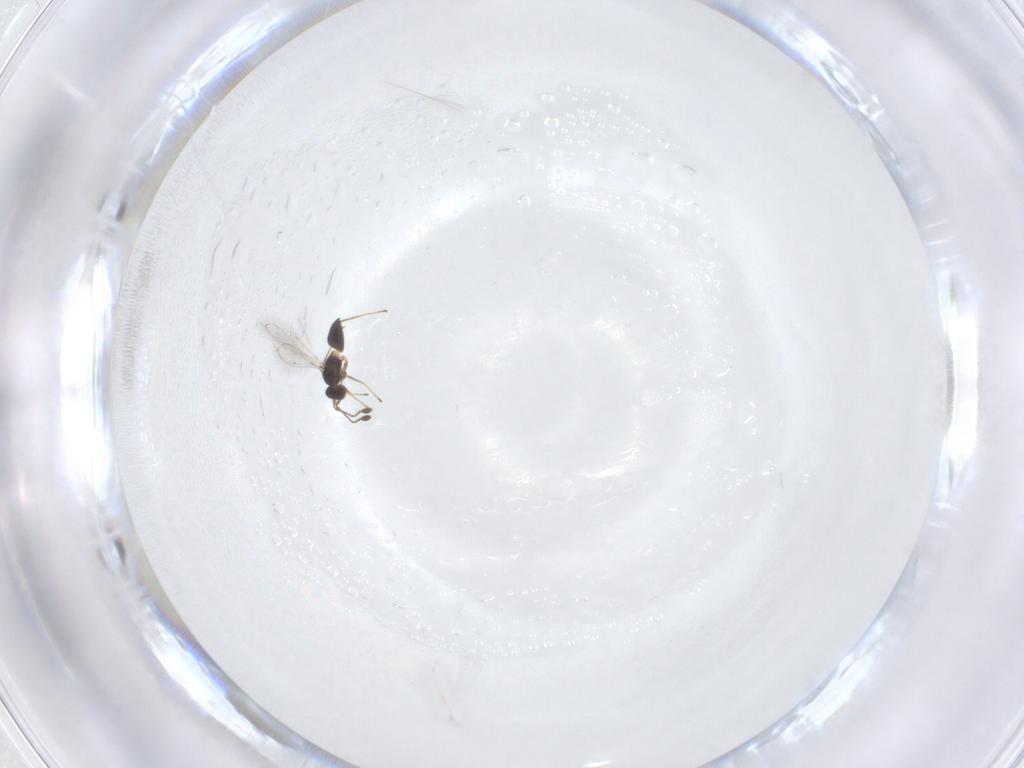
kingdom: Animalia
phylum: Arthropoda
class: Insecta
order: Hymenoptera
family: Mymaridae
